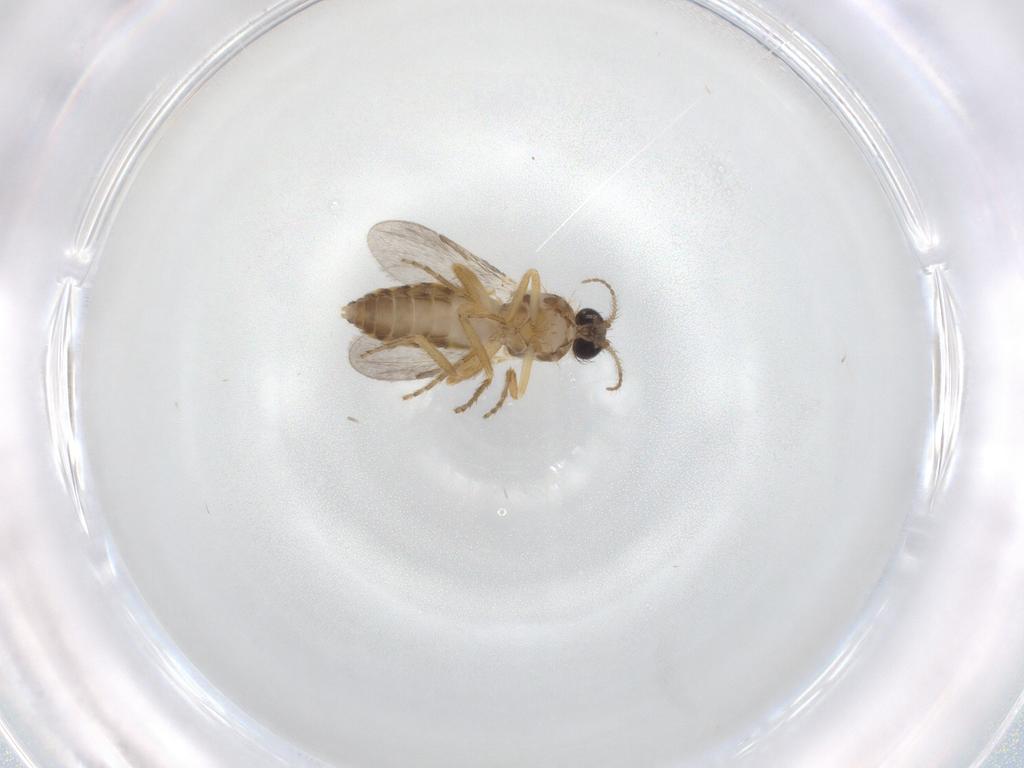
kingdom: Animalia
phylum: Arthropoda
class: Insecta
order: Diptera
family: Ceratopogonidae
